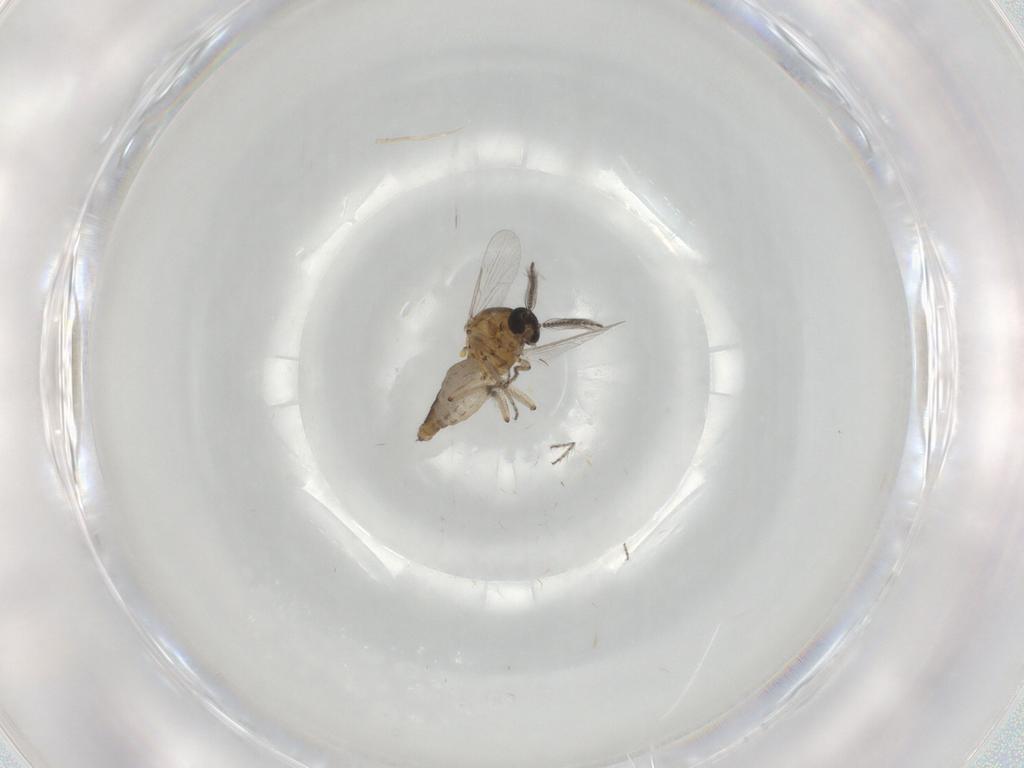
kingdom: Animalia
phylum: Arthropoda
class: Insecta
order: Diptera
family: Ceratopogonidae
